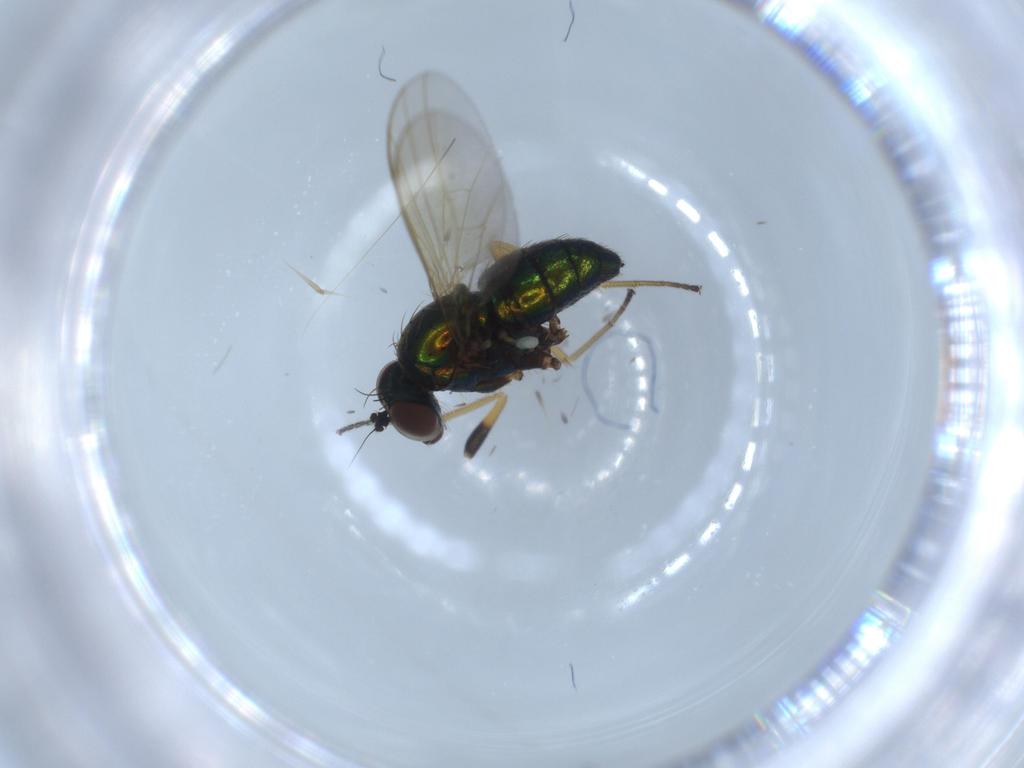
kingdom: Animalia
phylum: Arthropoda
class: Insecta
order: Diptera
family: Dolichopodidae
